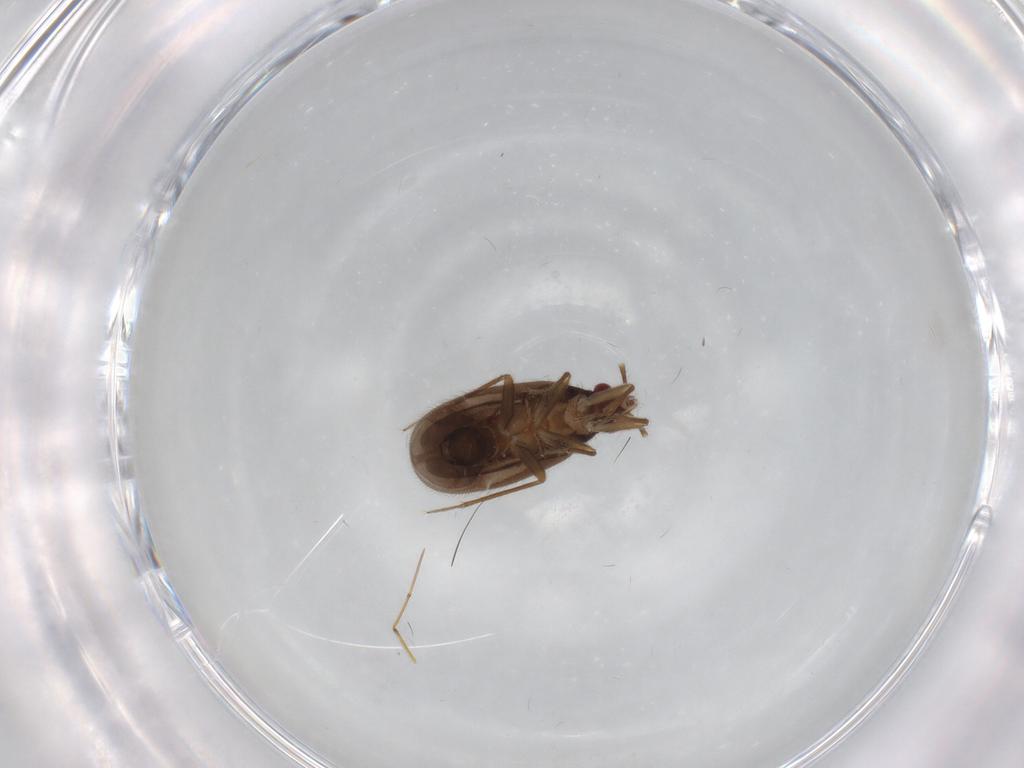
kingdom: Animalia
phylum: Arthropoda
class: Insecta
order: Hemiptera
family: Ceratocombidae
